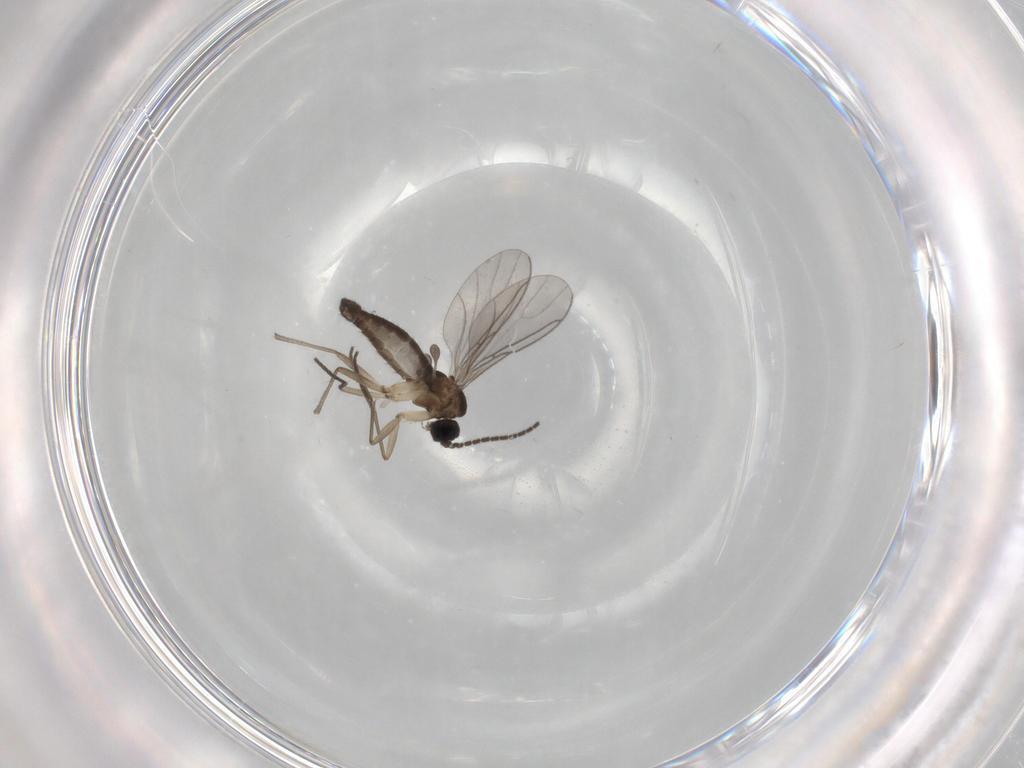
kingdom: Animalia
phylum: Arthropoda
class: Insecta
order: Diptera
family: Sciaridae
